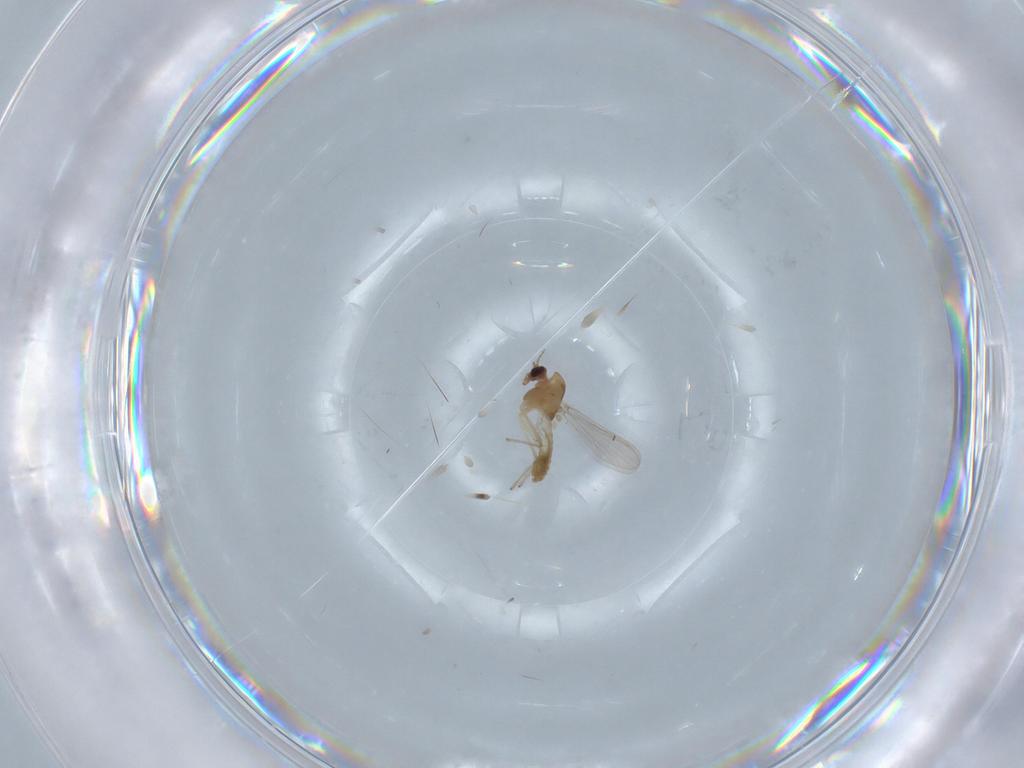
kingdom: Animalia
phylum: Arthropoda
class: Insecta
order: Diptera
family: Chironomidae
